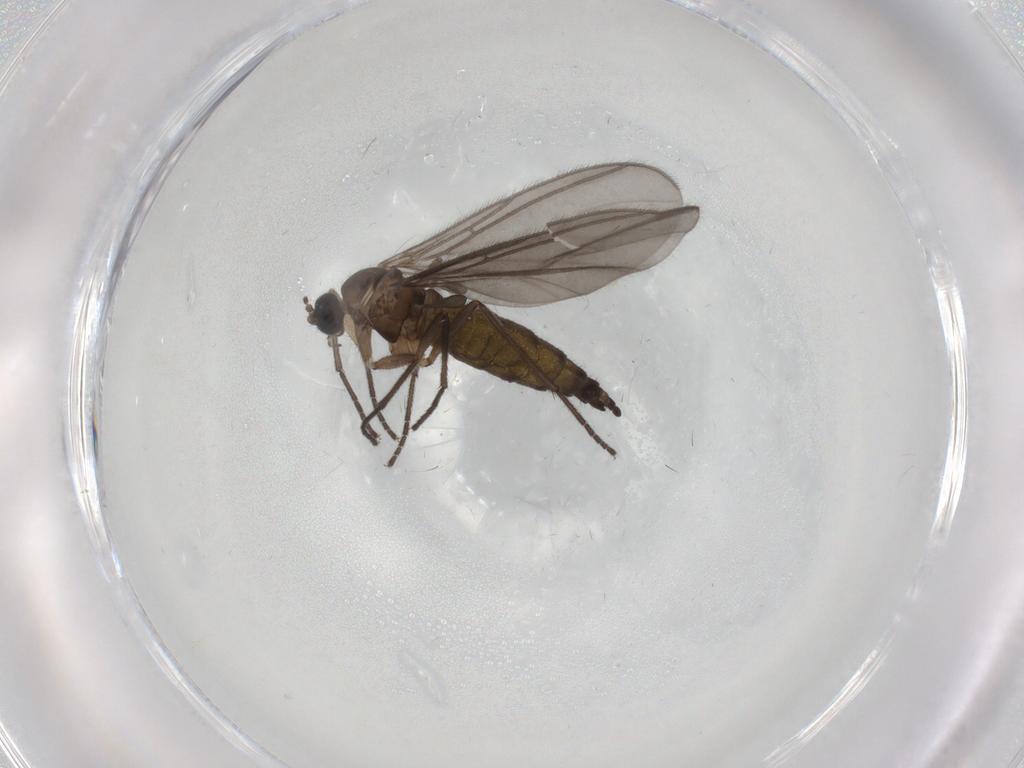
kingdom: Animalia
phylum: Arthropoda
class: Insecta
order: Diptera
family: Sciaridae
